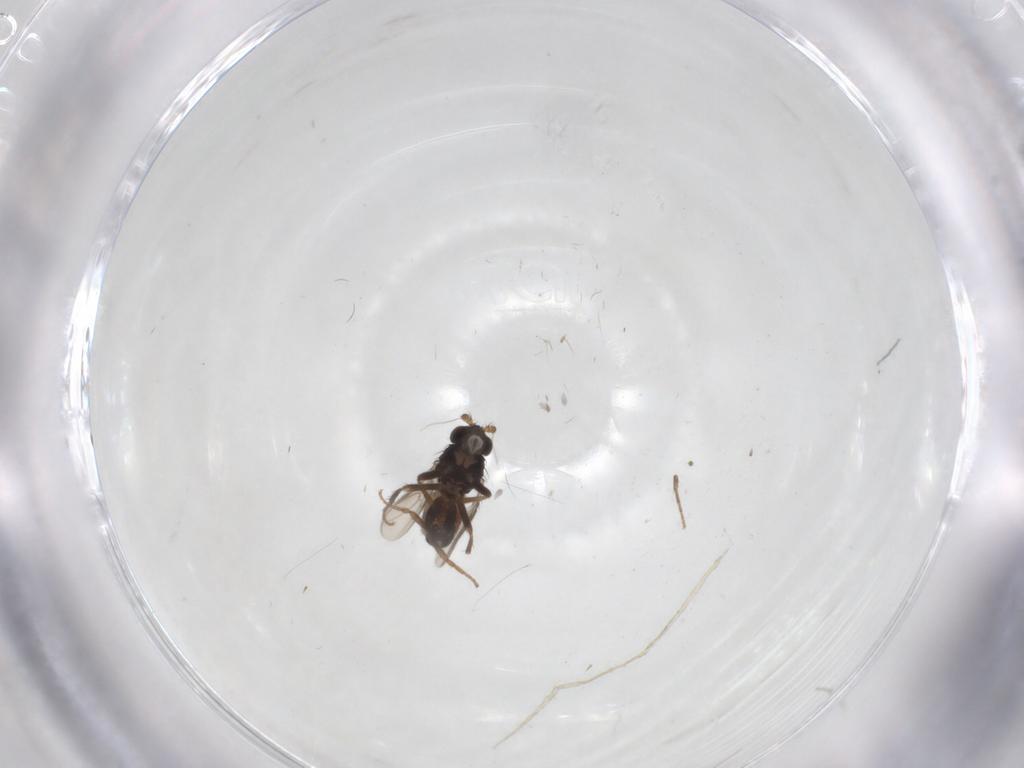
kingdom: Animalia
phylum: Arthropoda
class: Insecta
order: Diptera
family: Sphaeroceridae
